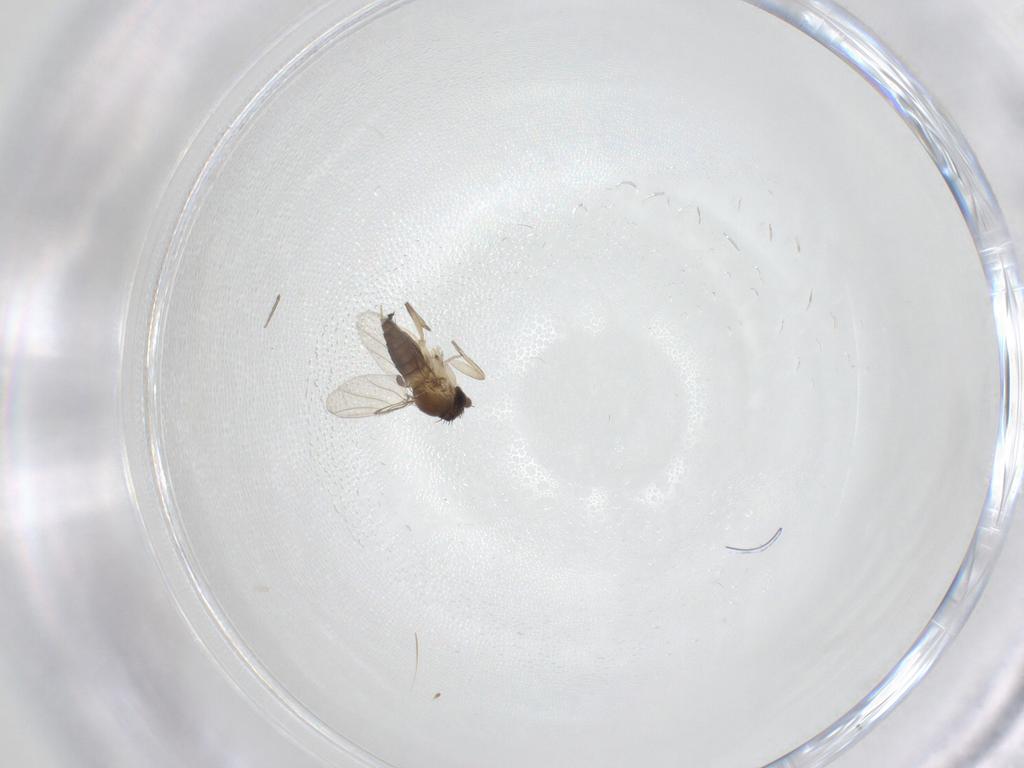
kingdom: Animalia
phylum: Arthropoda
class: Insecta
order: Diptera
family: Phoridae
